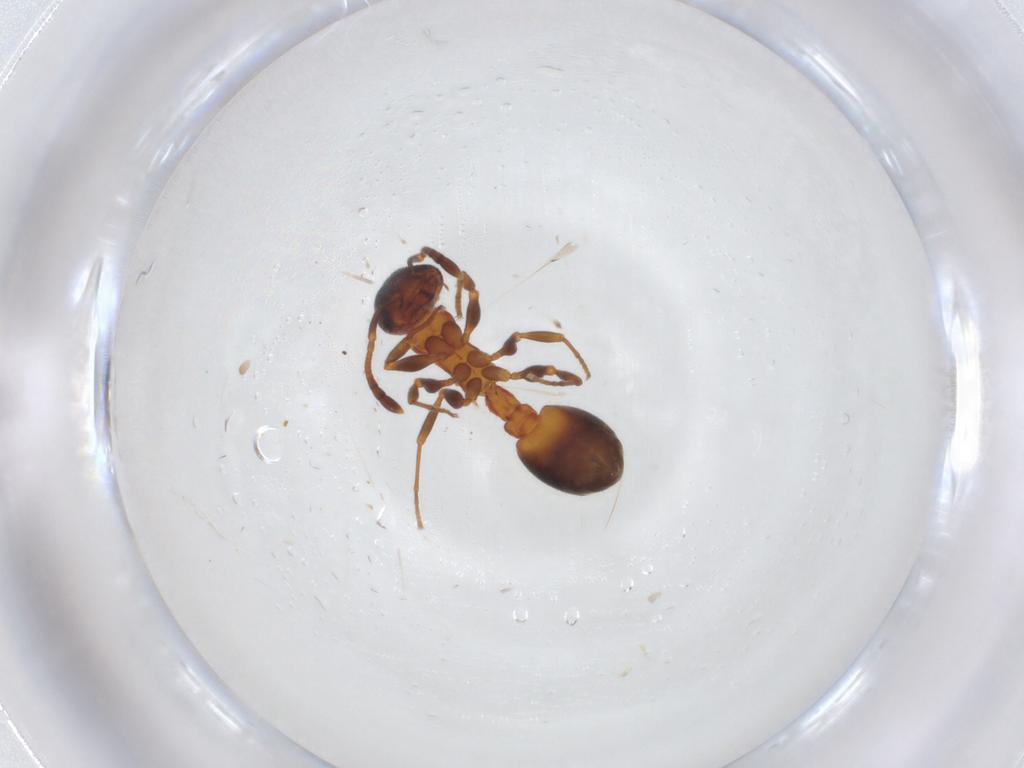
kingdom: Animalia
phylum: Arthropoda
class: Insecta
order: Hymenoptera
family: Formicidae
